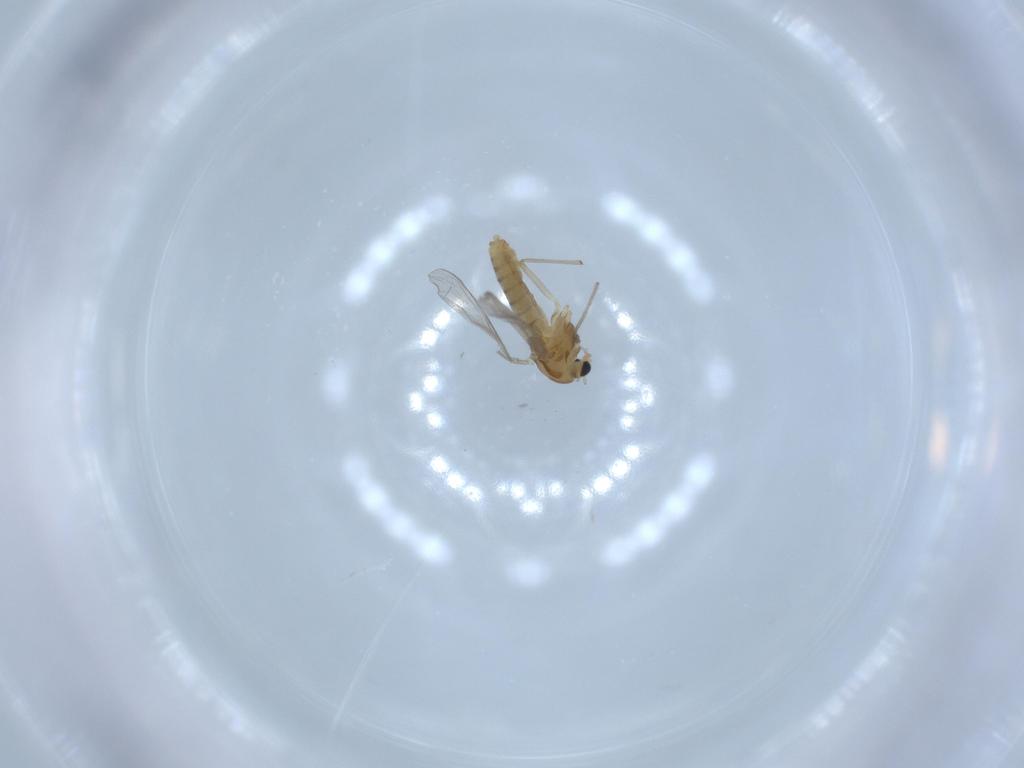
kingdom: Animalia
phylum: Arthropoda
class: Insecta
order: Diptera
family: Chironomidae
